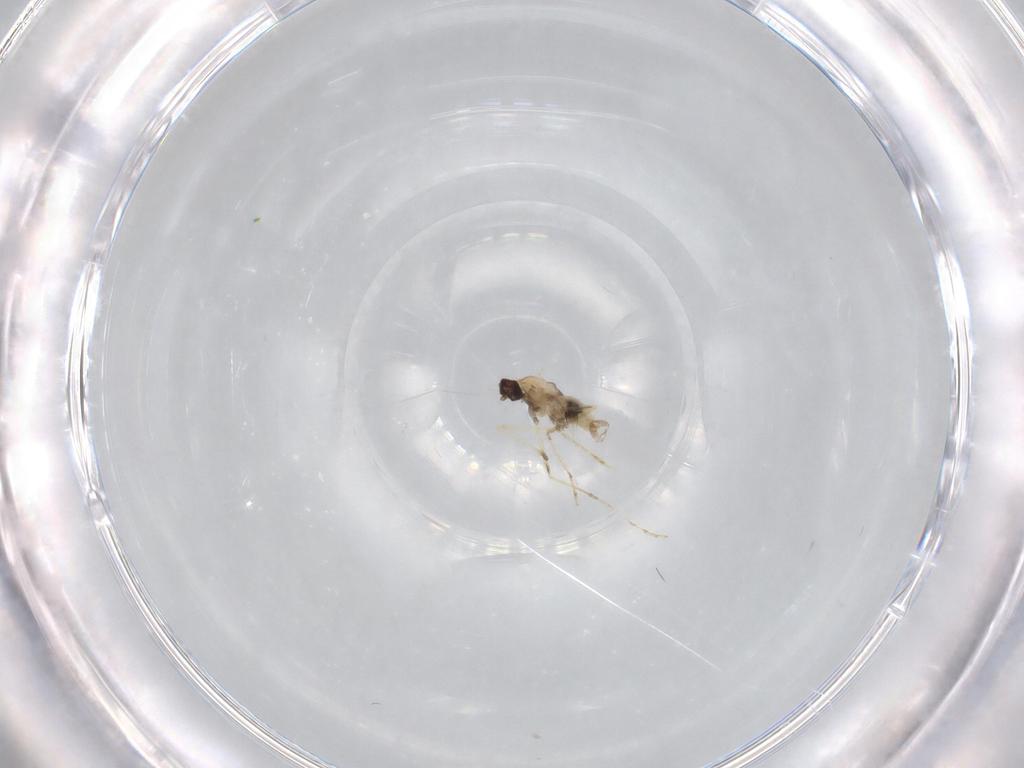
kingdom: Animalia
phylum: Arthropoda
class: Insecta
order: Diptera
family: Cecidomyiidae
